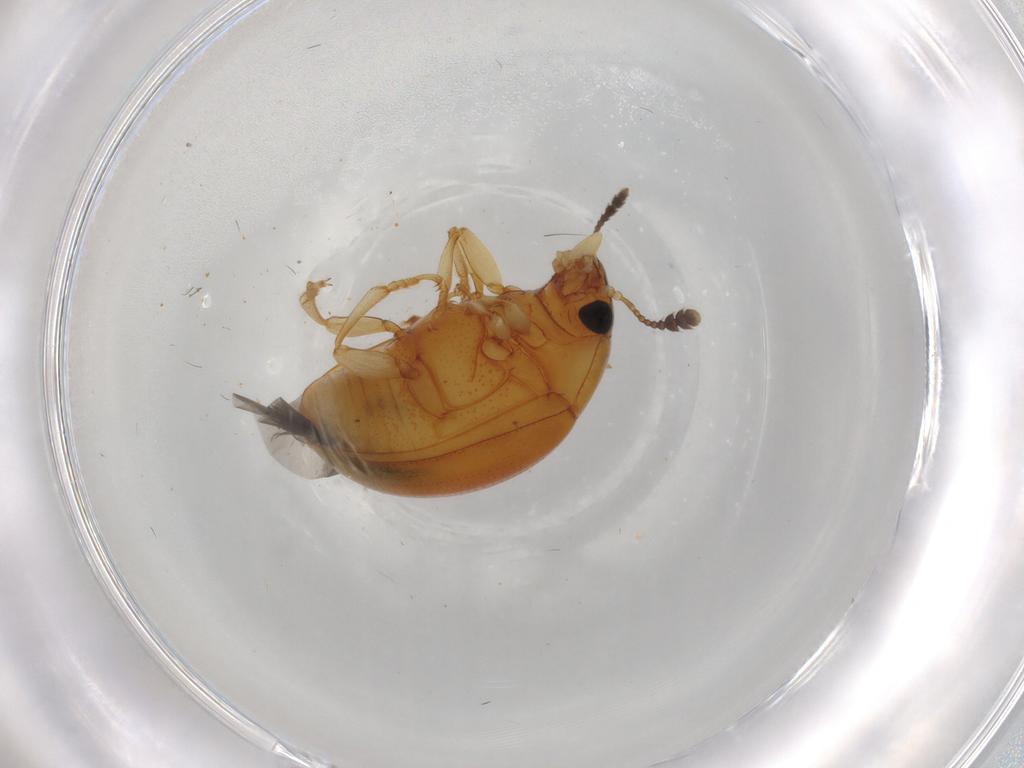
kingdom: Animalia
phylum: Arthropoda
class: Insecta
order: Coleoptera
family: Erotylidae
